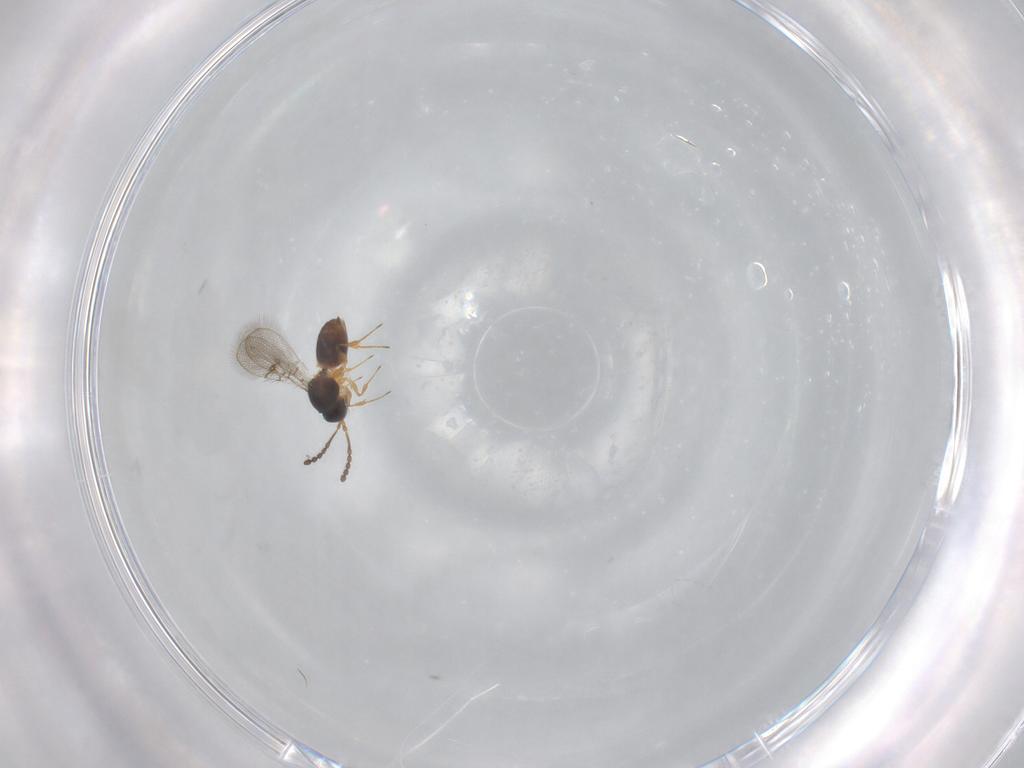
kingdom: Animalia
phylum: Arthropoda
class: Insecta
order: Hymenoptera
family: Figitidae
